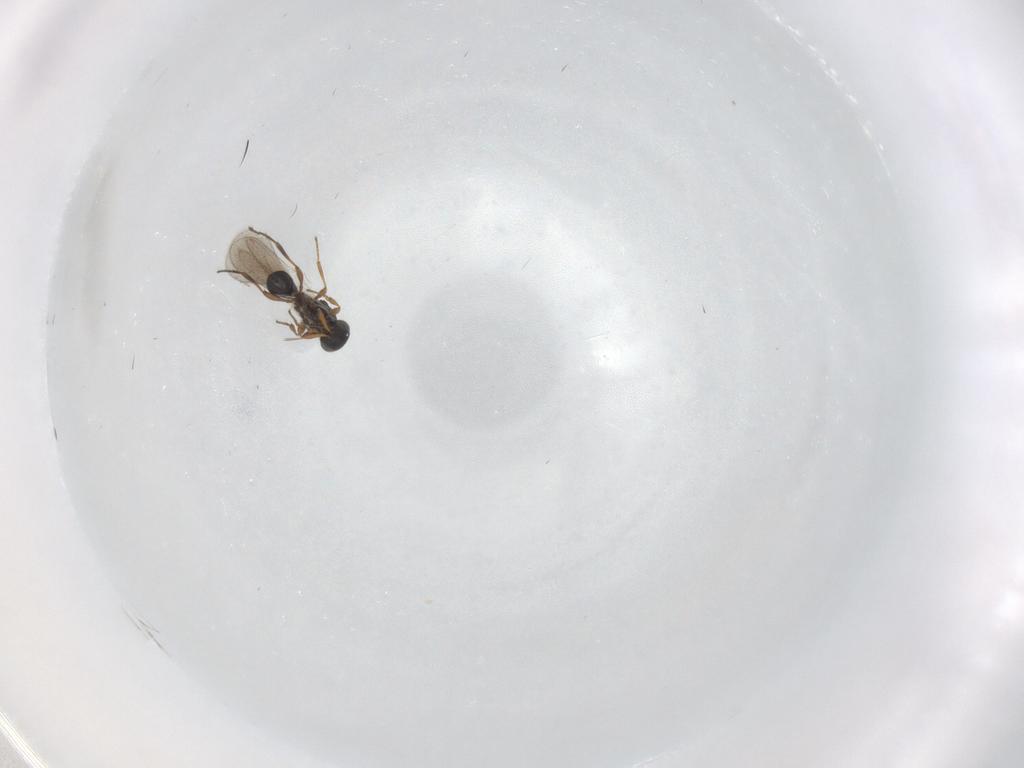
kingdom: Animalia
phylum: Arthropoda
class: Insecta
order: Hymenoptera
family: Platygastridae
